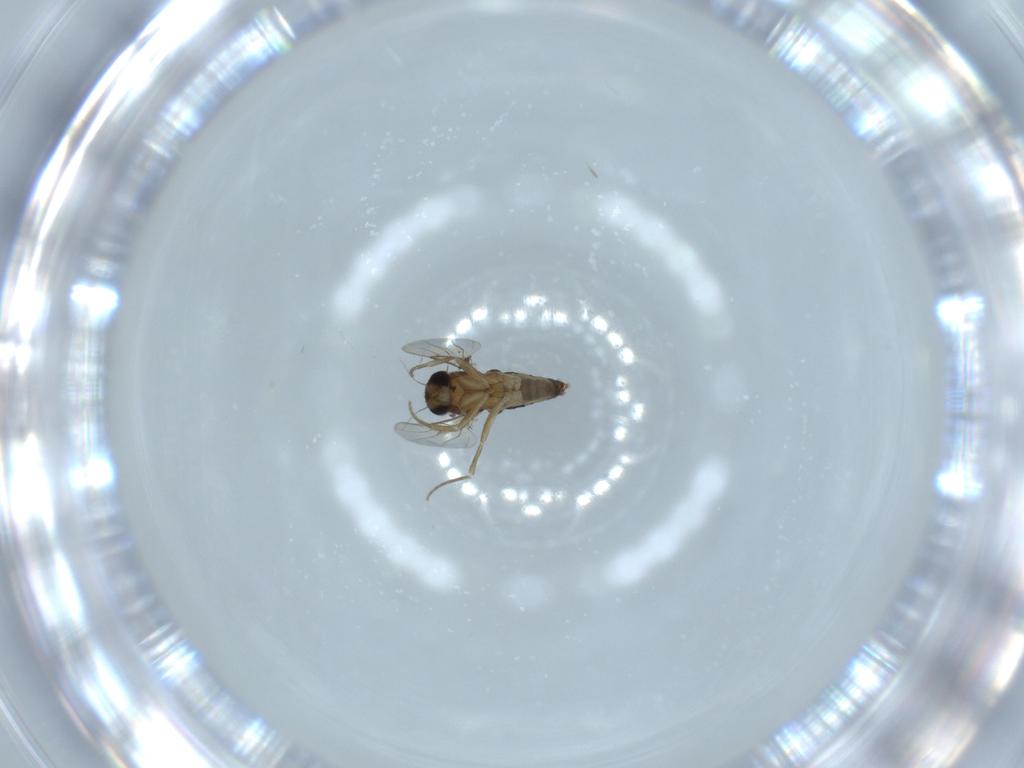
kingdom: Animalia
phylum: Arthropoda
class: Insecta
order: Diptera
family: Phoridae
